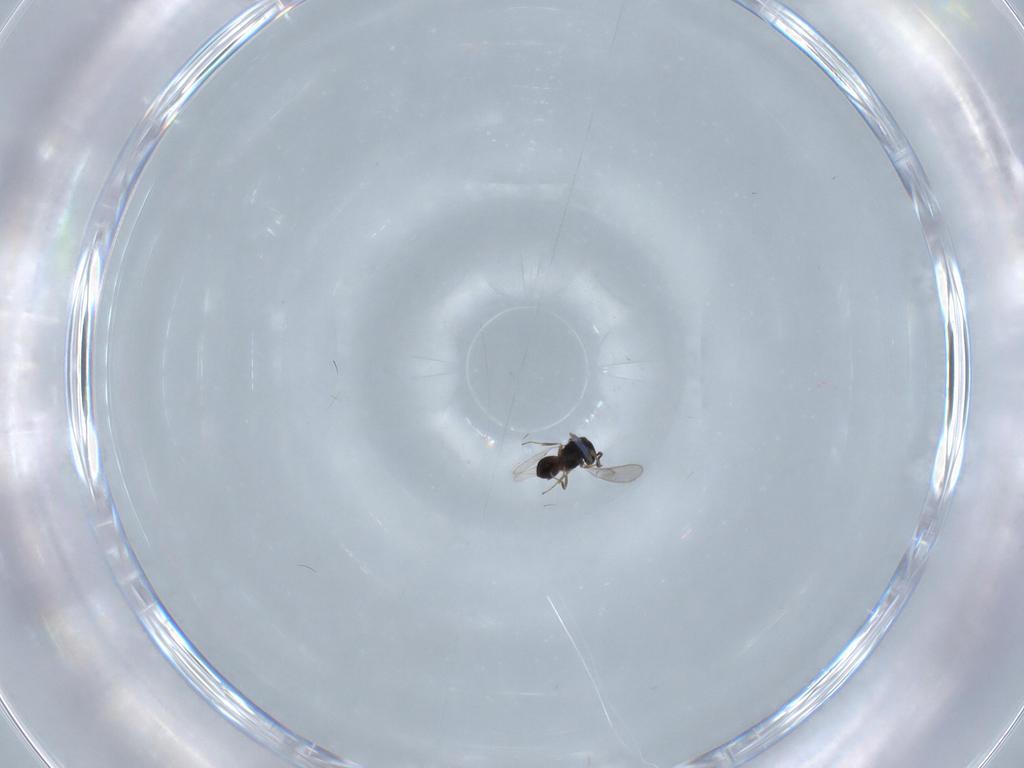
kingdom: Animalia
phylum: Arthropoda
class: Insecta
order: Hymenoptera
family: Scelionidae
